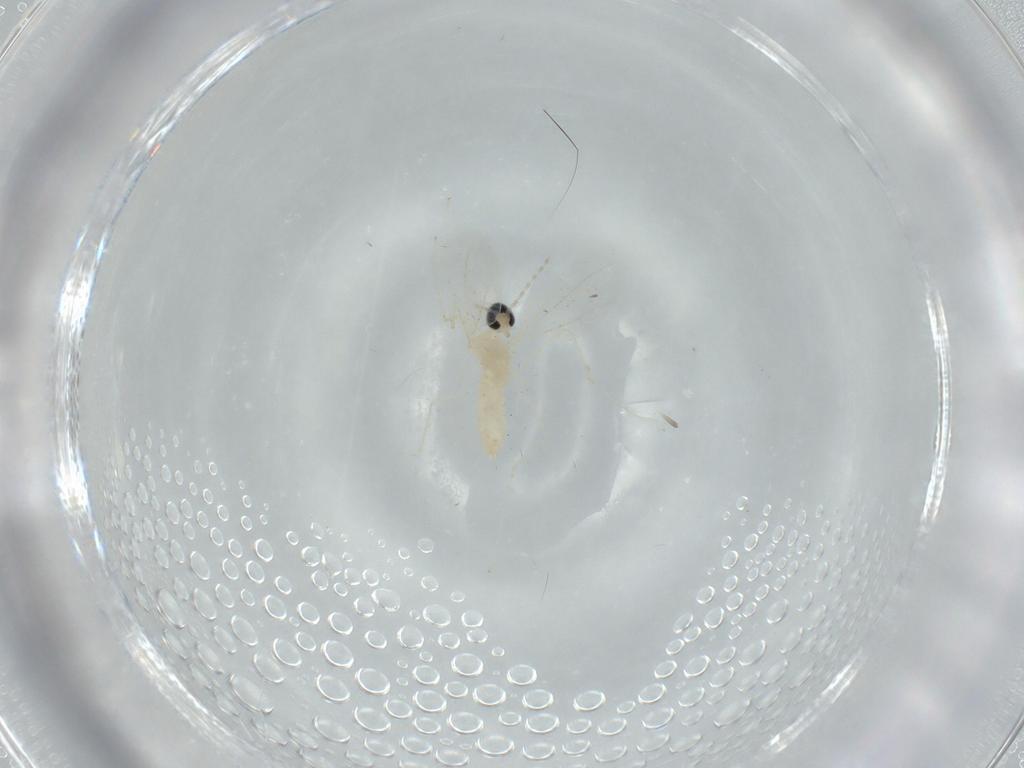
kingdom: Animalia
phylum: Arthropoda
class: Insecta
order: Diptera
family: Cecidomyiidae
